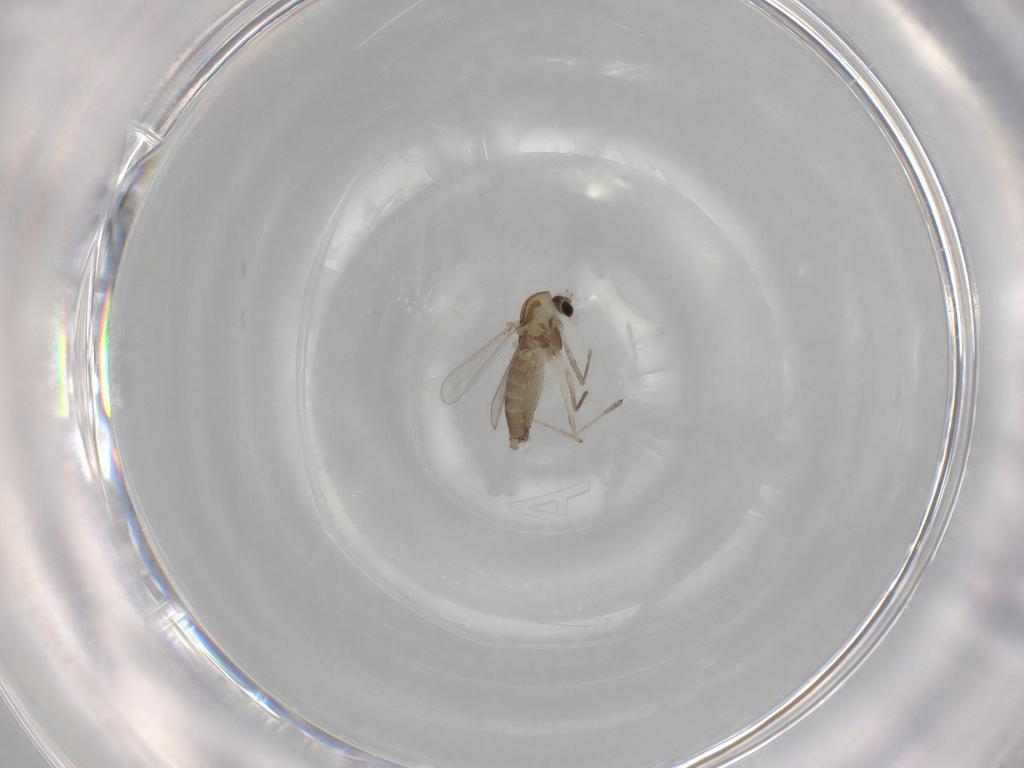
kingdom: Animalia
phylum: Arthropoda
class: Insecta
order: Diptera
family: Chironomidae
